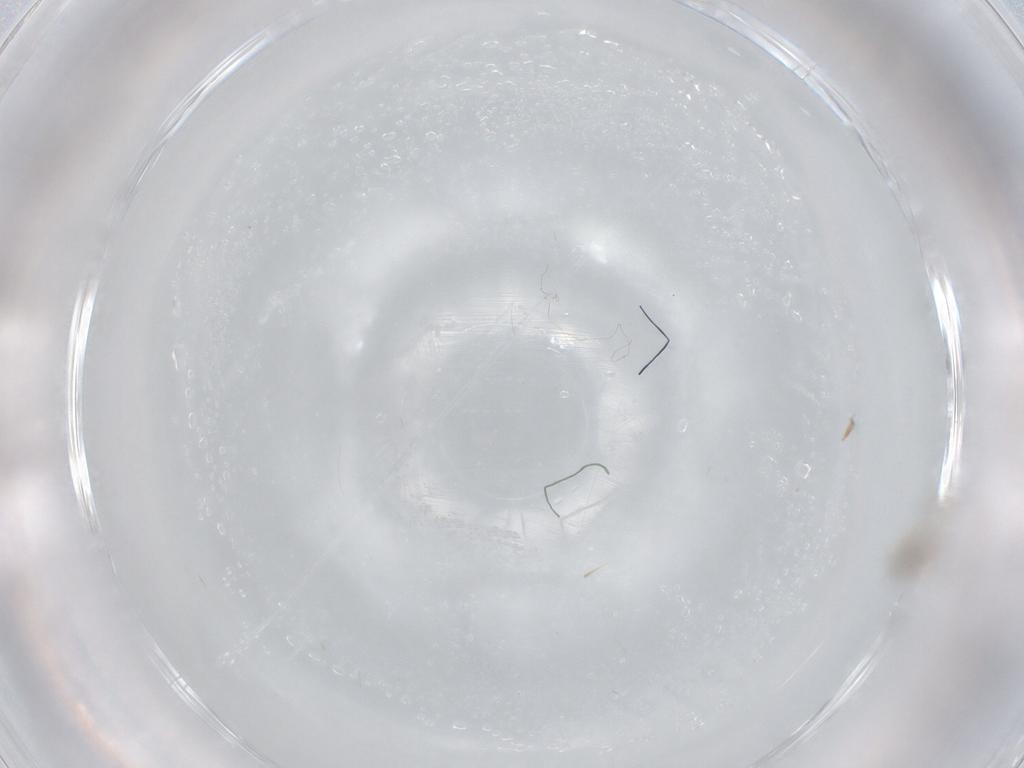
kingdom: Animalia
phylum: Arthropoda
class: Insecta
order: Hymenoptera
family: Mymaridae
